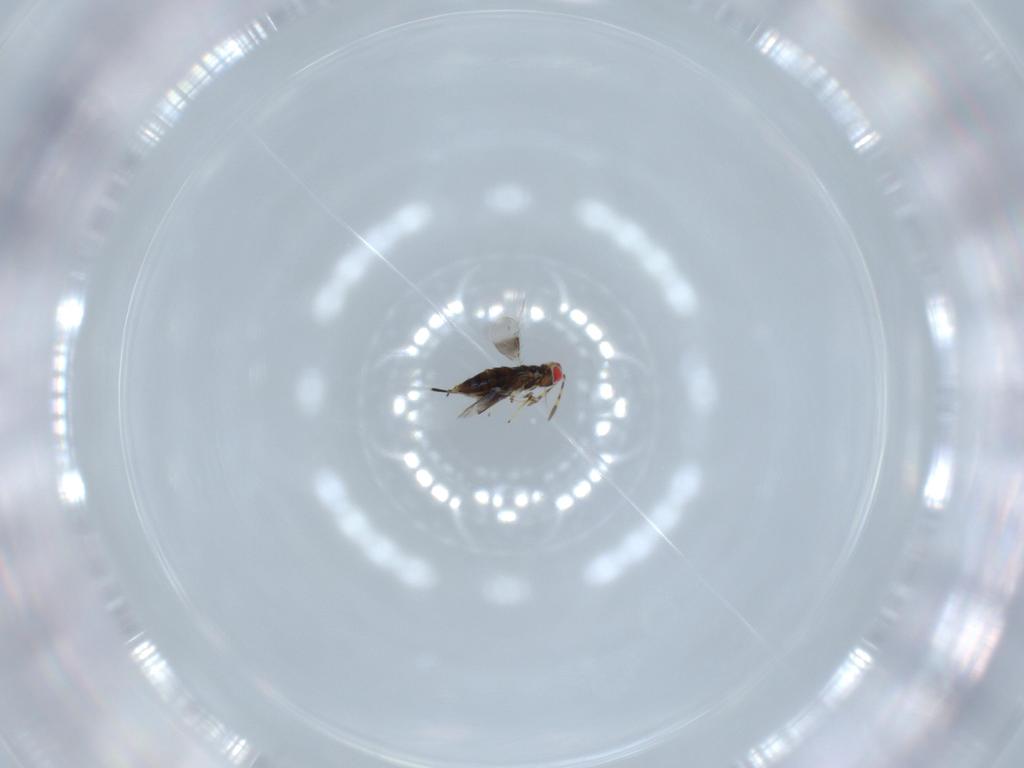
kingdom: Animalia
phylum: Arthropoda
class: Insecta
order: Hymenoptera
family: Azotidae
